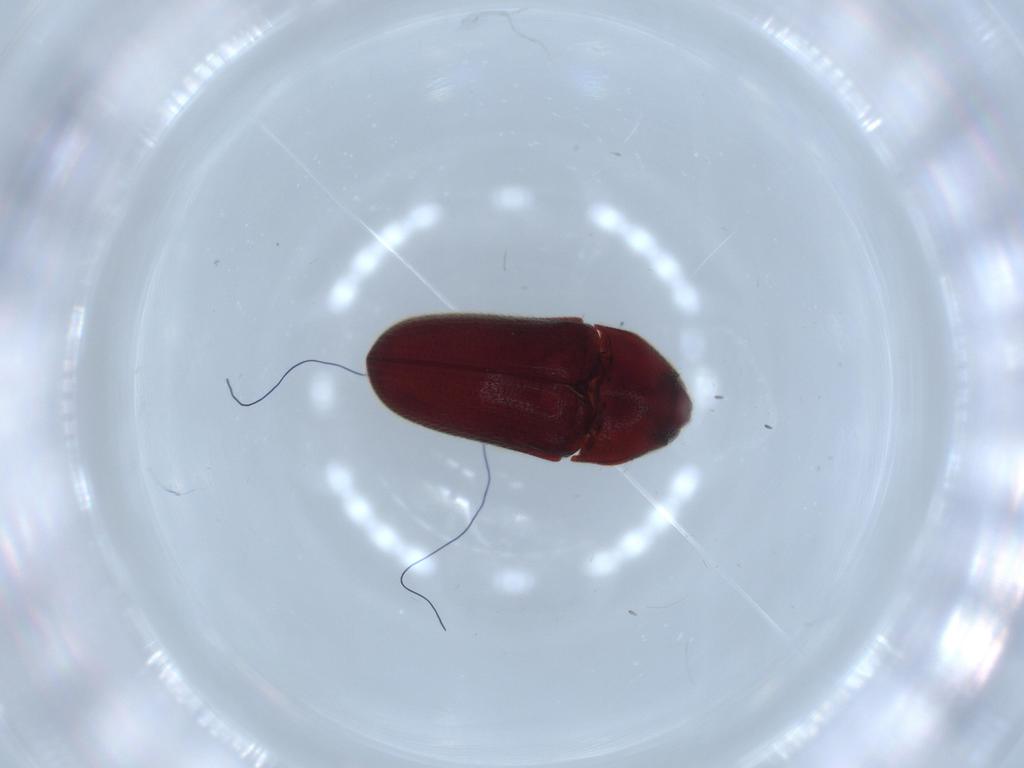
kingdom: Animalia
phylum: Arthropoda
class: Insecta
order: Coleoptera
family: Throscidae
